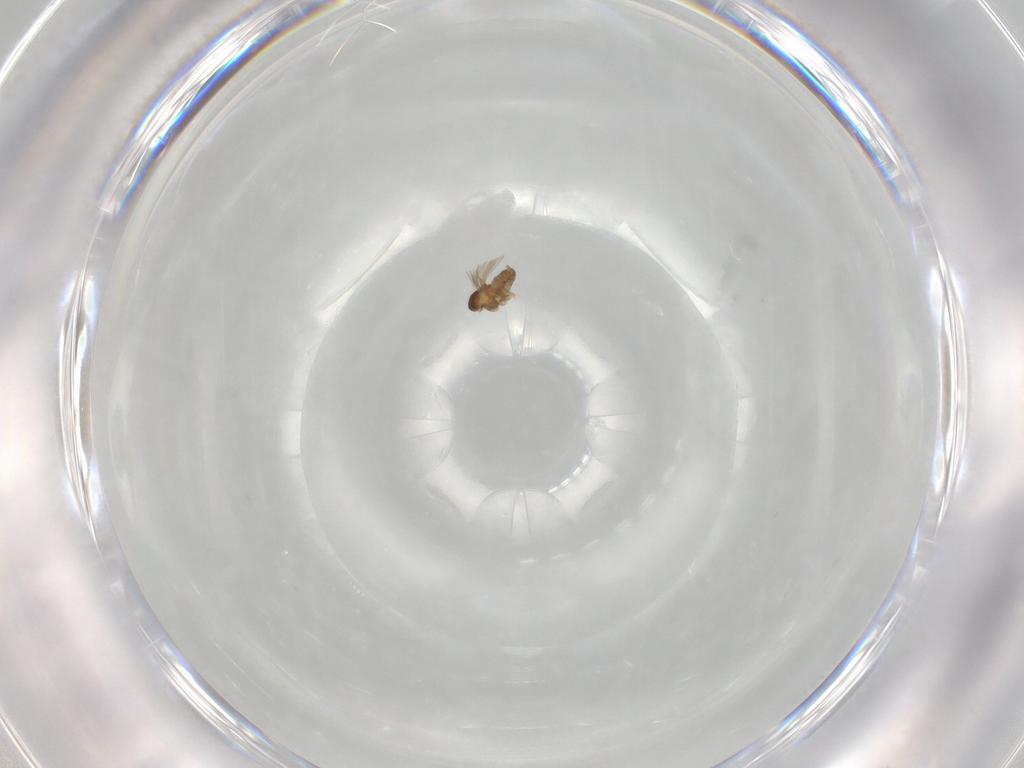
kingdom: Animalia
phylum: Arthropoda
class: Insecta
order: Diptera
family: Cecidomyiidae
